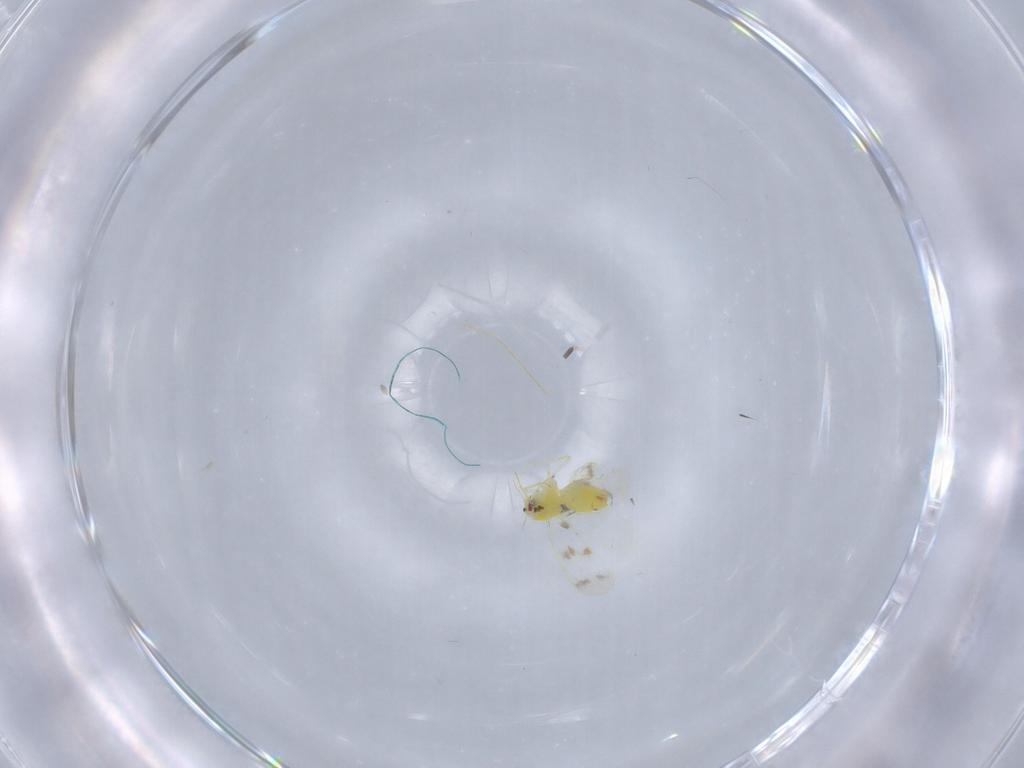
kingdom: Animalia
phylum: Arthropoda
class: Insecta
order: Hemiptera
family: Aleyrodidae
